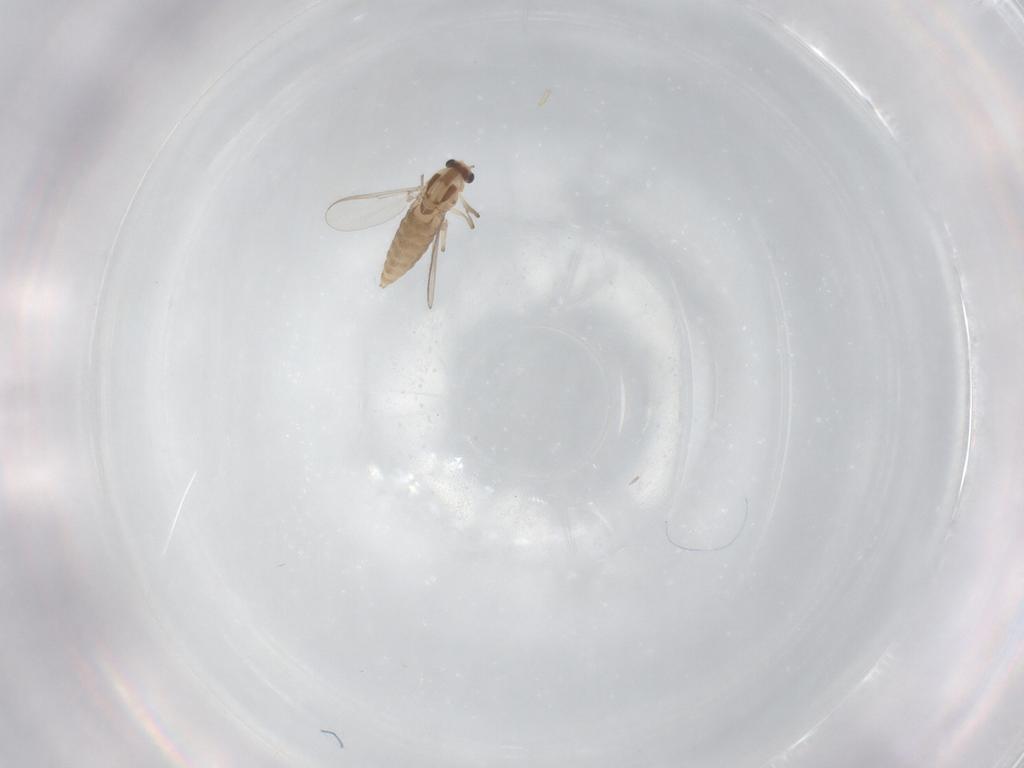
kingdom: Animalia
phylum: Arthropoda
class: Insecta
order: Diptera
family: Chironomidae
